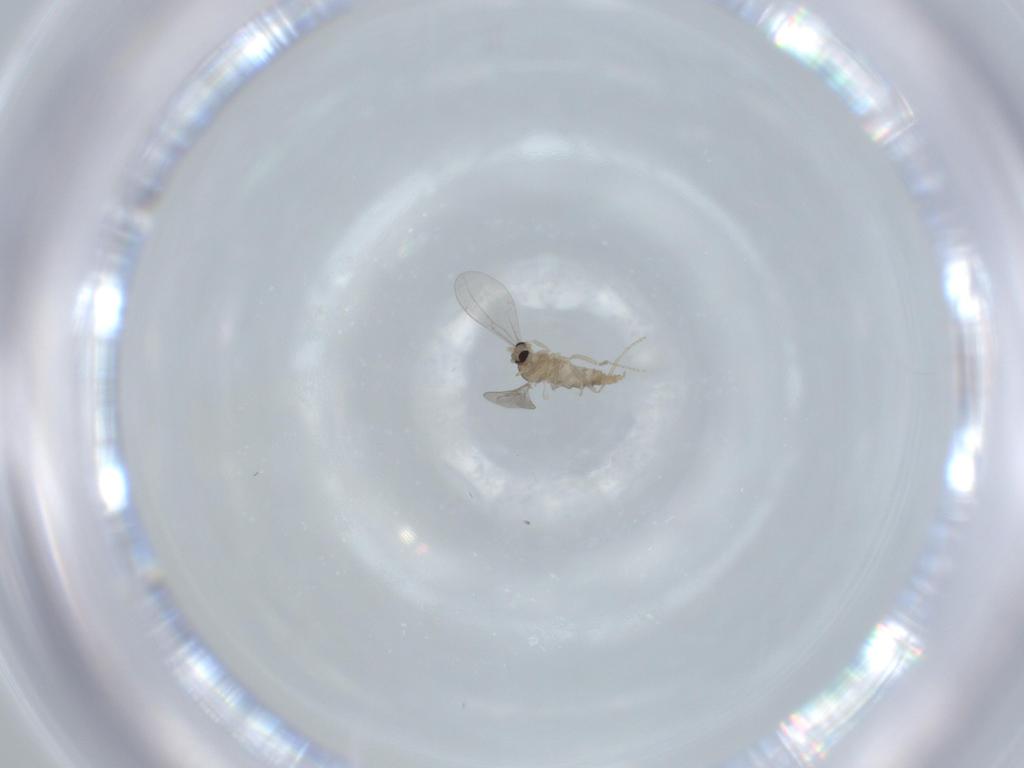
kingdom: Animalia
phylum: Arthropoda
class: Insecta
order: Diptera
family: Cecidomyiidae
